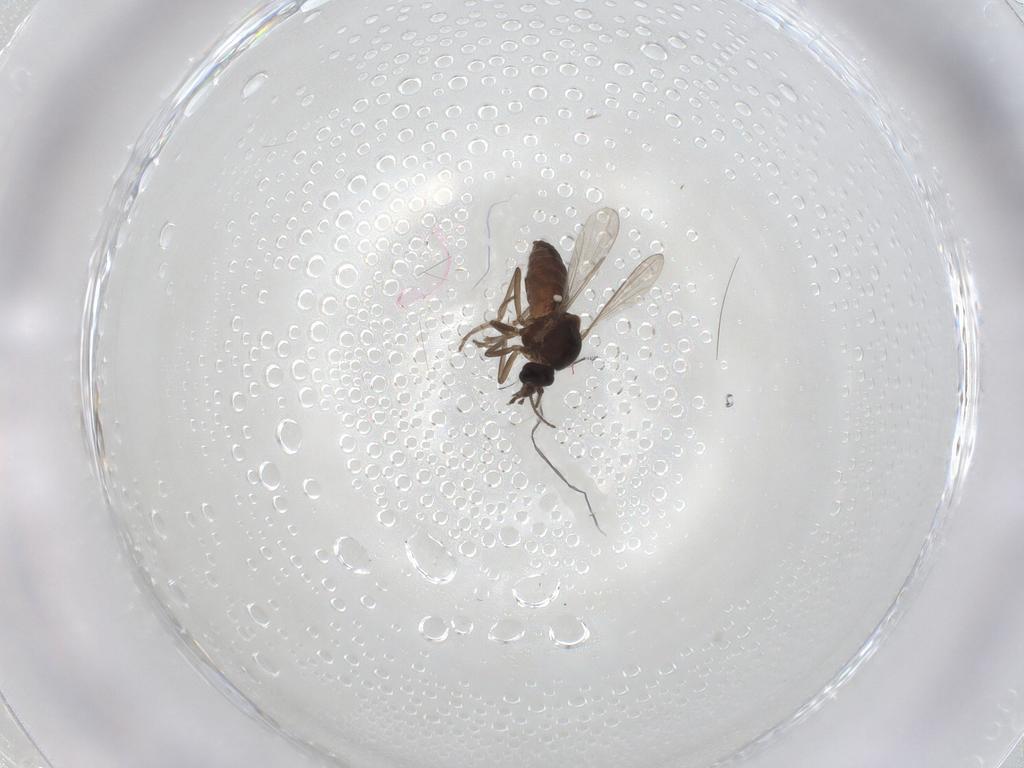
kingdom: Animalia
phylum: Arthropoda
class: Insecta
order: Diptera
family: Ceratopogonidae
